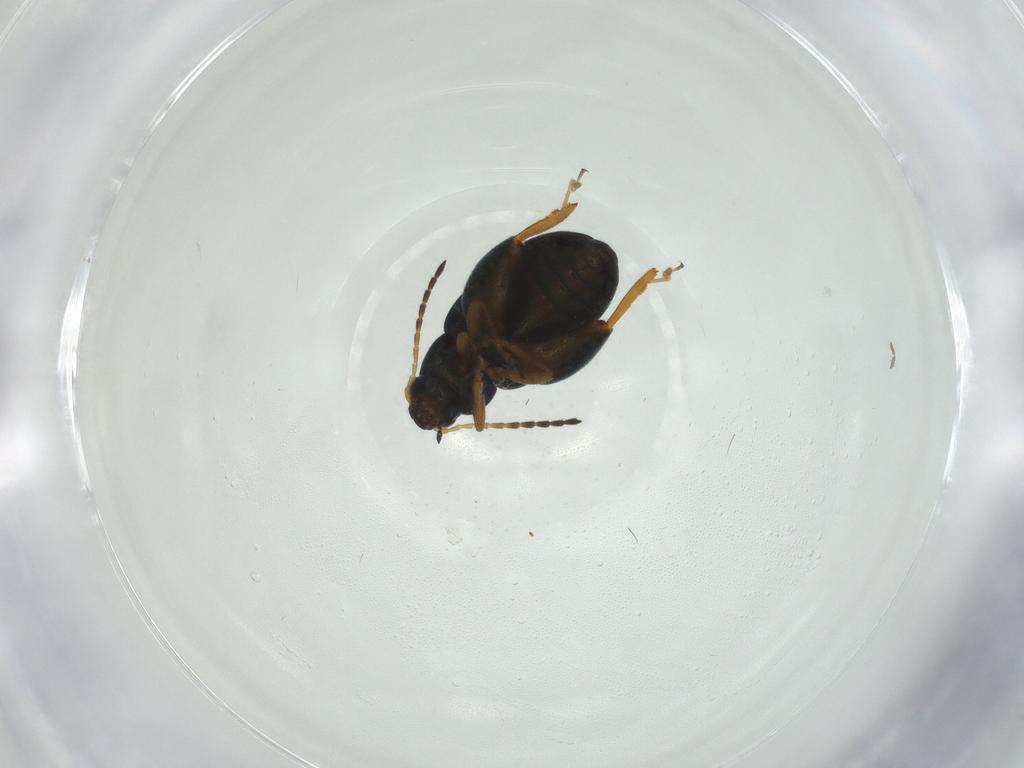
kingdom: Animalia
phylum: Arthropoda
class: Insecta
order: Coleoptera
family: Chrysomelidae
